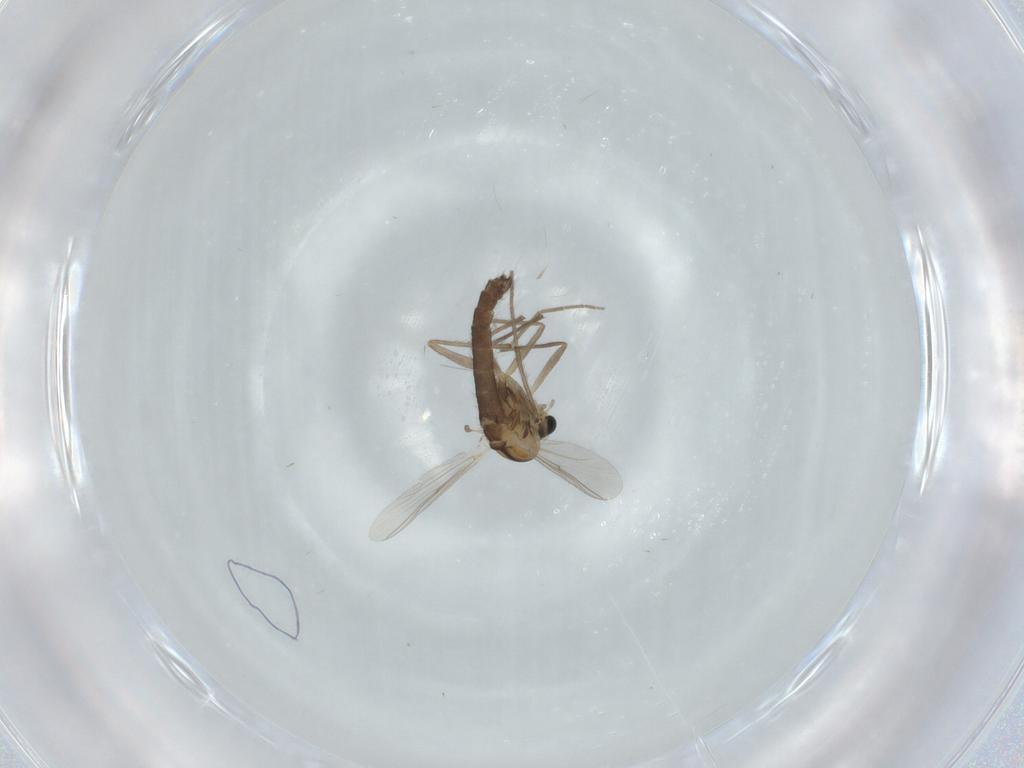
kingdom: Animalia
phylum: Arthropoda
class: Insecta
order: Diptera
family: Chironomidae
